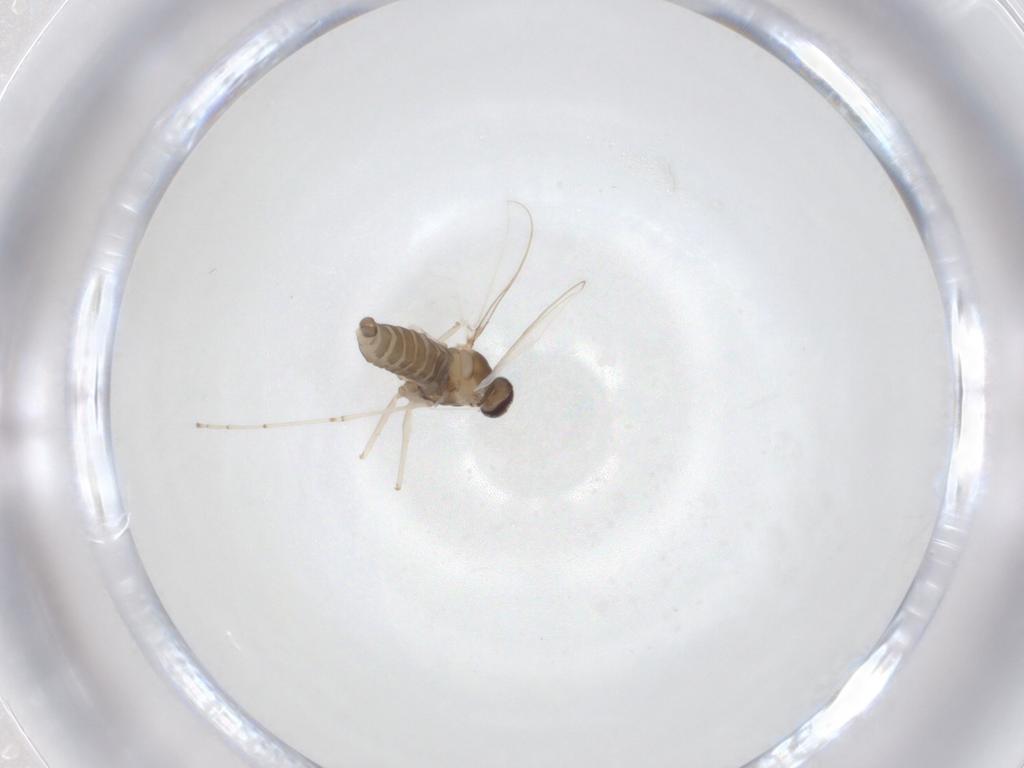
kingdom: Animalia
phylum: Arthropoda
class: Insecta
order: Diptera
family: Cecidomyiidae
